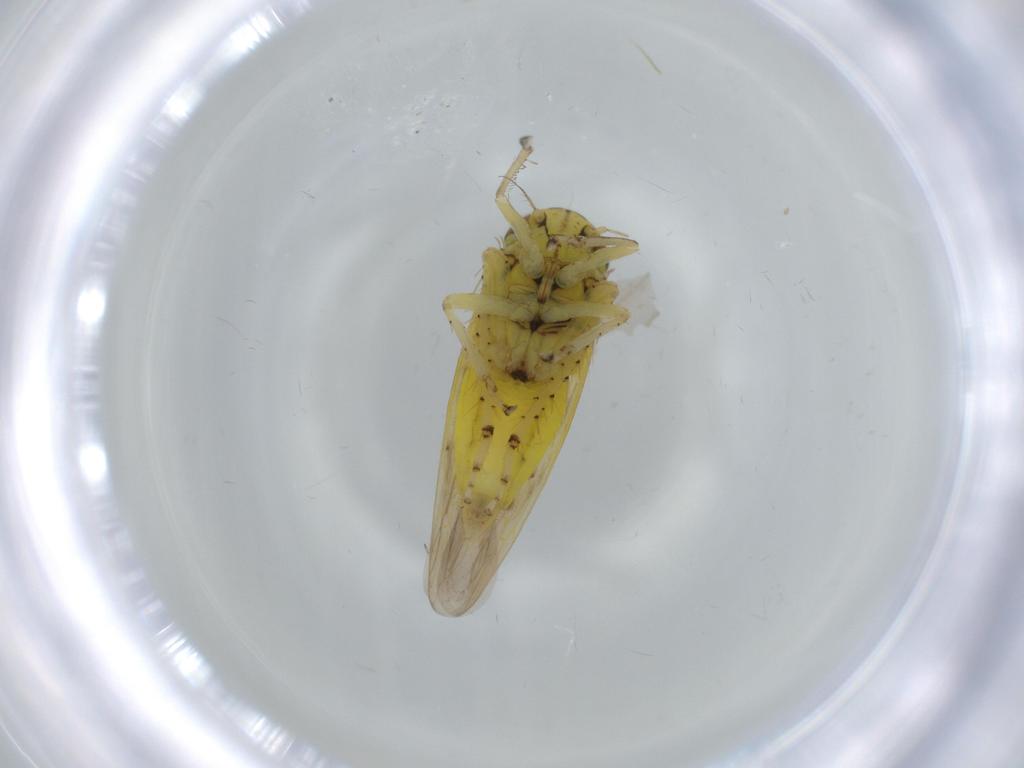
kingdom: Animalia
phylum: Arthropoda
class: Insecta
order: Hemiptera
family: Cicadellidae
